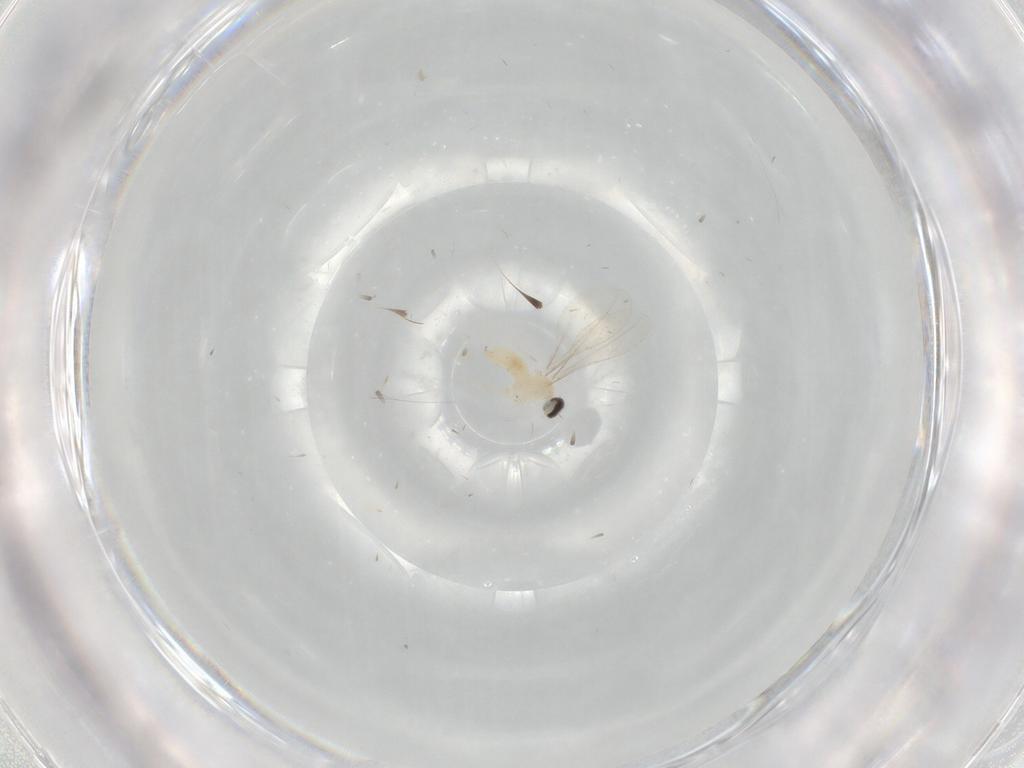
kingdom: Animalia
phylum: Arthropoda
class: Insecta
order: Diptera
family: Cecidomyiidae
